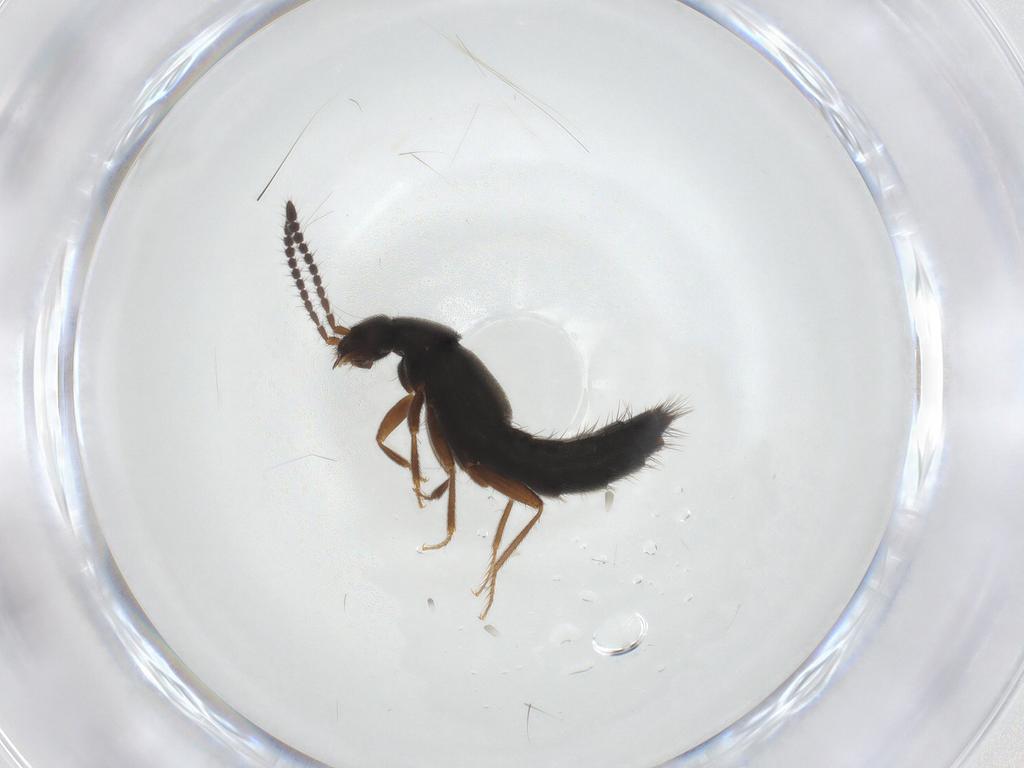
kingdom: Animalia
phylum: Arthropoda
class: Insecta
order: Coleoptera
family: Staphylinidae
